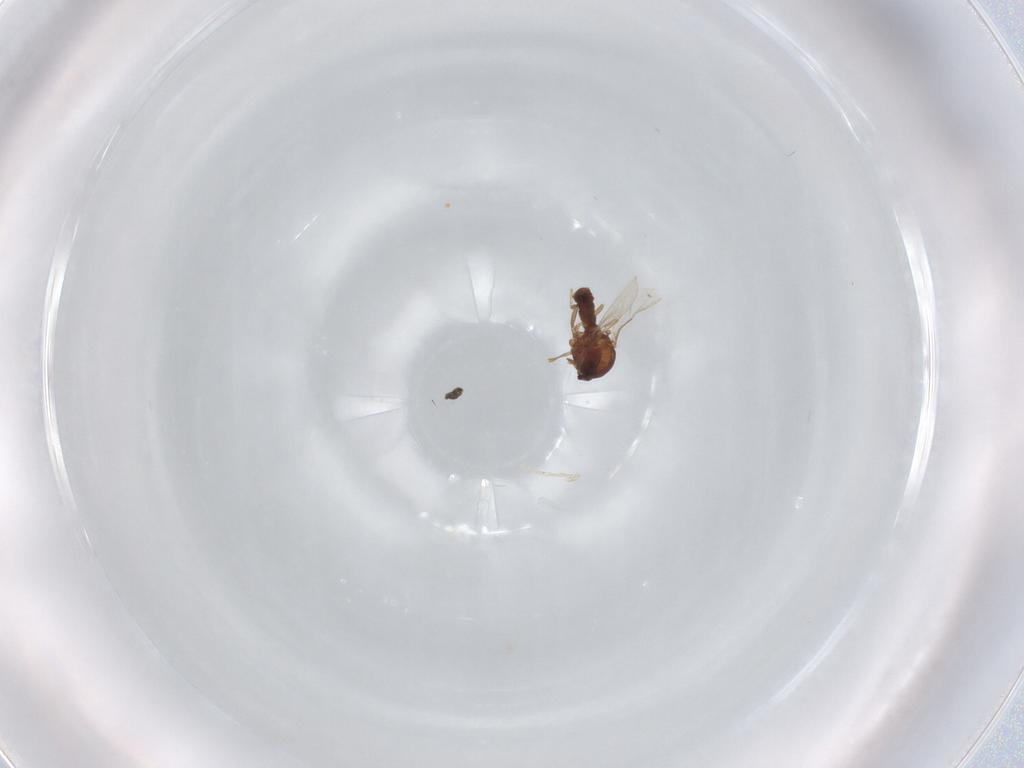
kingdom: Animalia
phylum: Arthropoda
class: Insecta
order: Diptera
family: Ceratopogonidae
